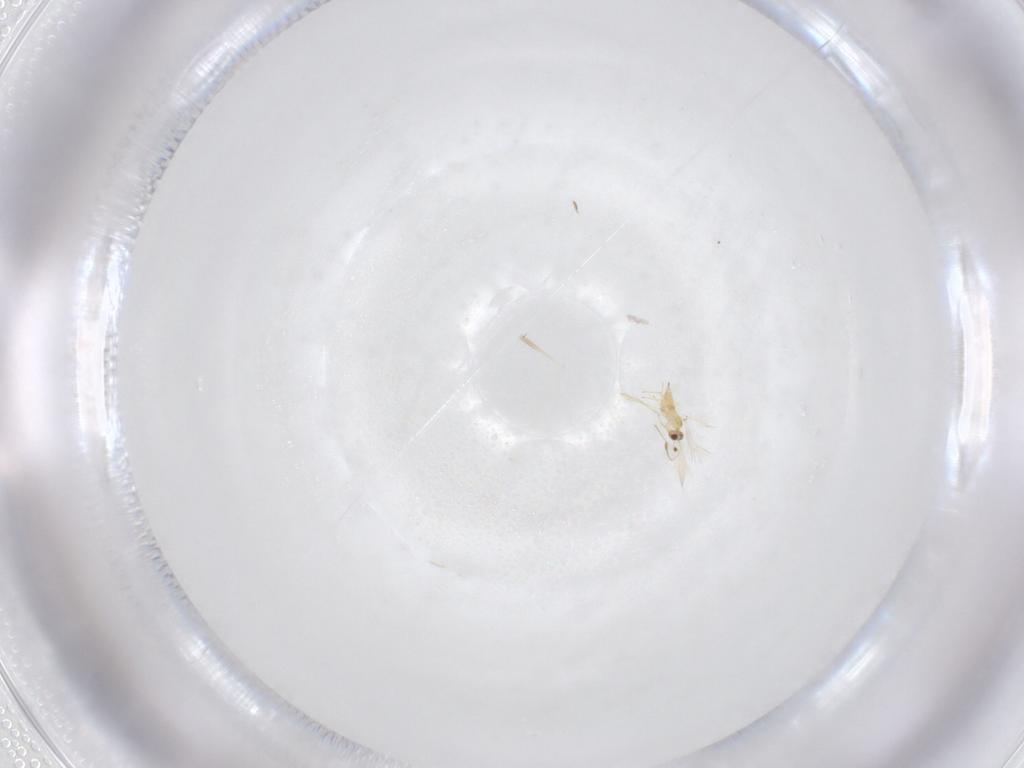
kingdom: Animalia
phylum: Arthropoda
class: Insecta
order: Hymenoptera
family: Mymaridae
